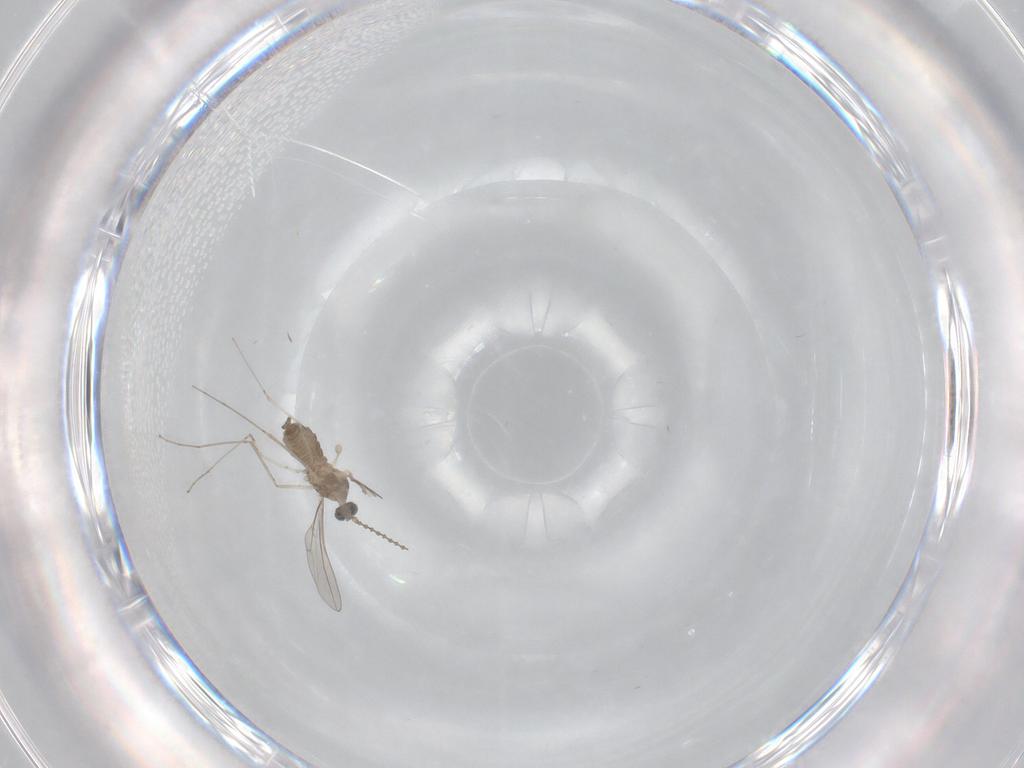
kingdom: Animalia
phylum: Arthropoda
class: Insecta
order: Diptera
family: Cecidomyiidae
